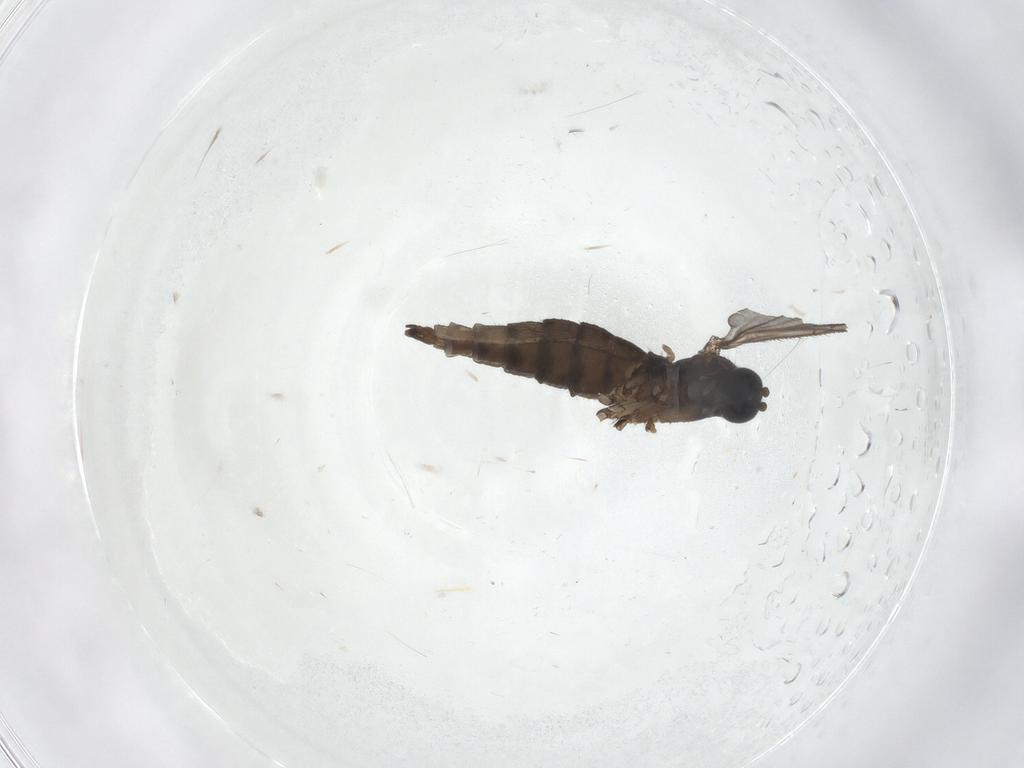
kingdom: Animalia
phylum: Arthropoda
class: Insecta
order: Diptera
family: Sciaridae
